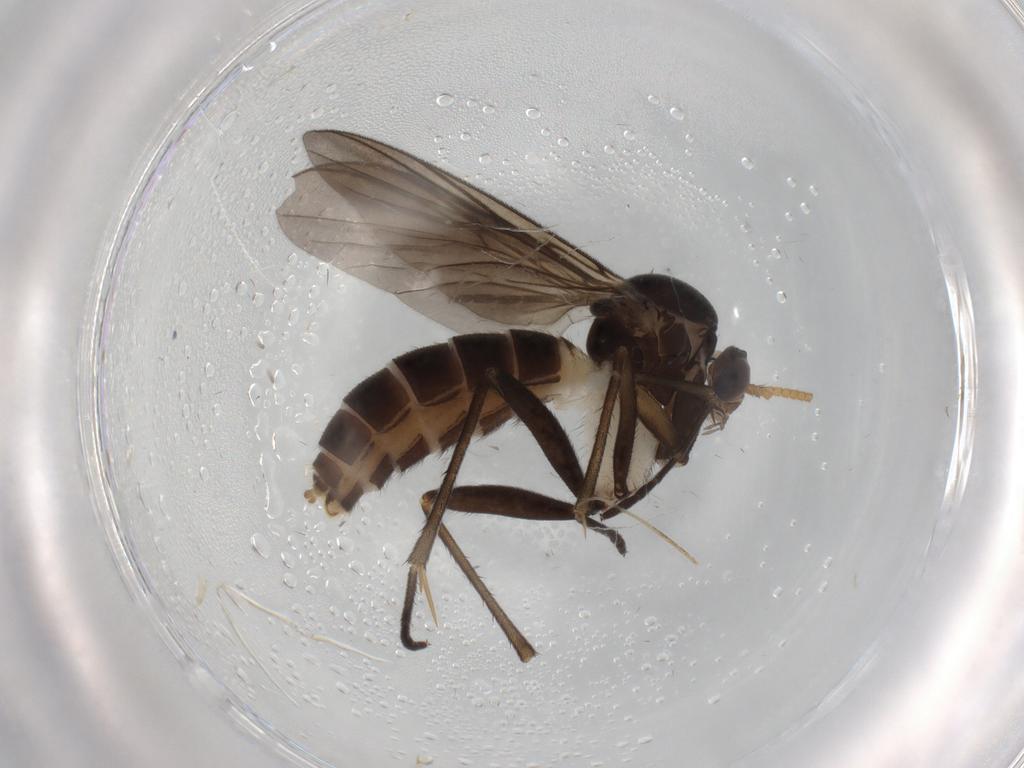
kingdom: Animalia
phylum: Arthropoda
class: Insecta
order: Diptera
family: Limoniidae
